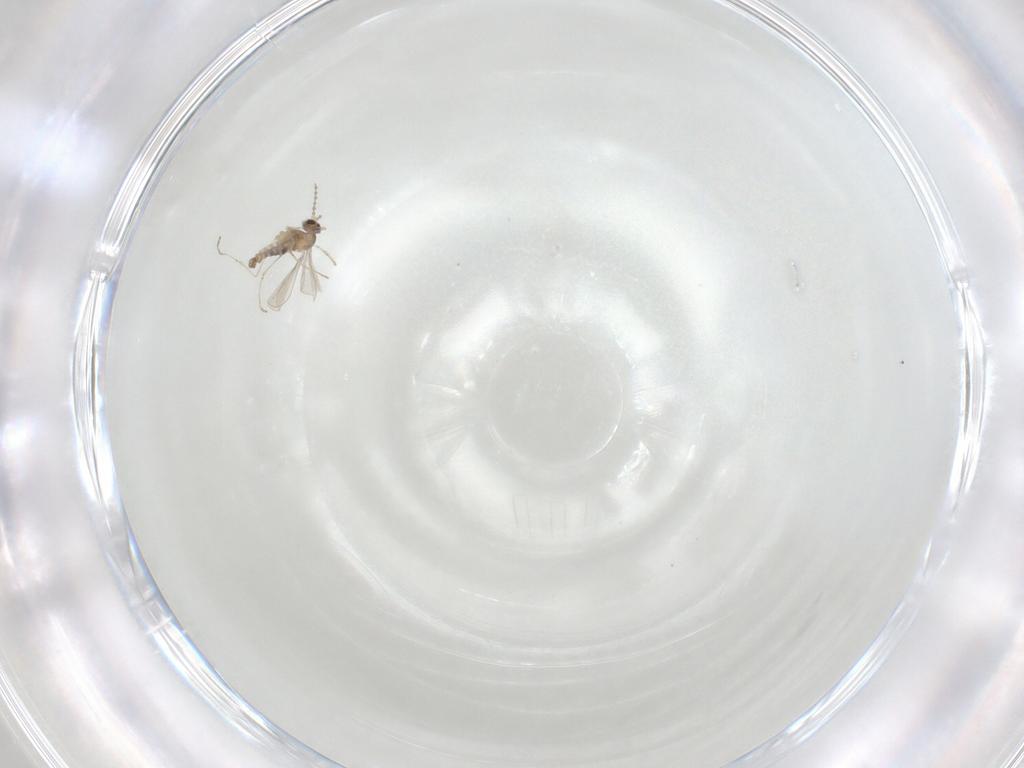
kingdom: Animalia
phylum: Arthropoda
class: Insecta
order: Diptera
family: Cecidomyiidae
